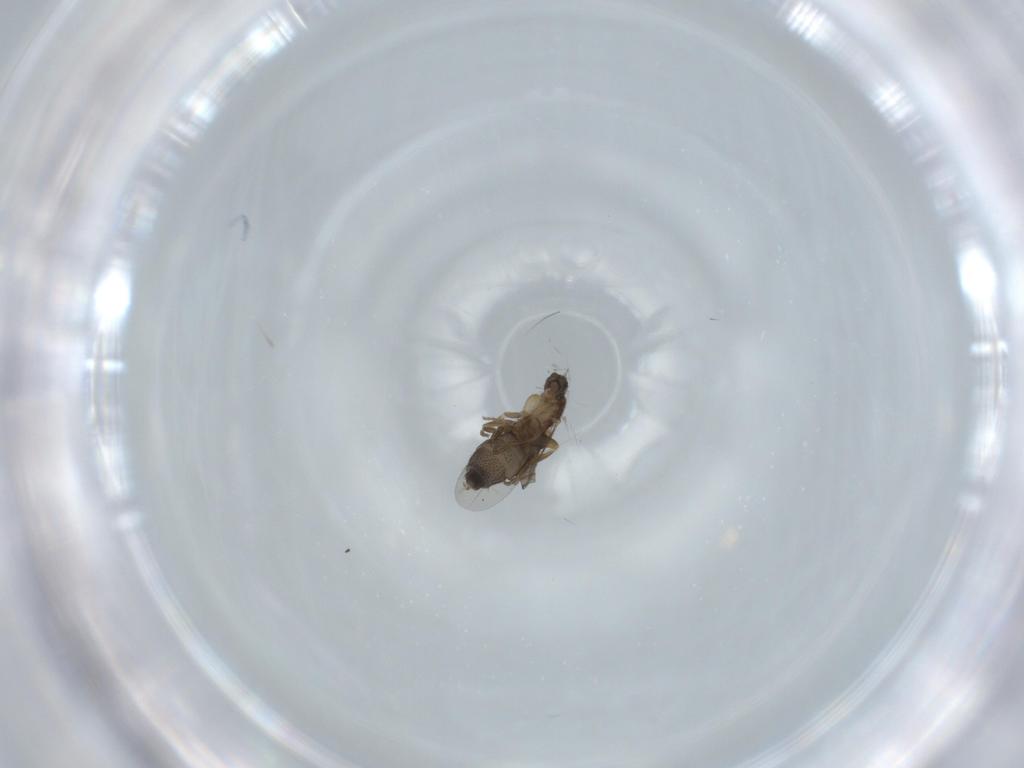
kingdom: Animalia
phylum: Arthropoda
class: Insecta
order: Diptera
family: Phoridae
